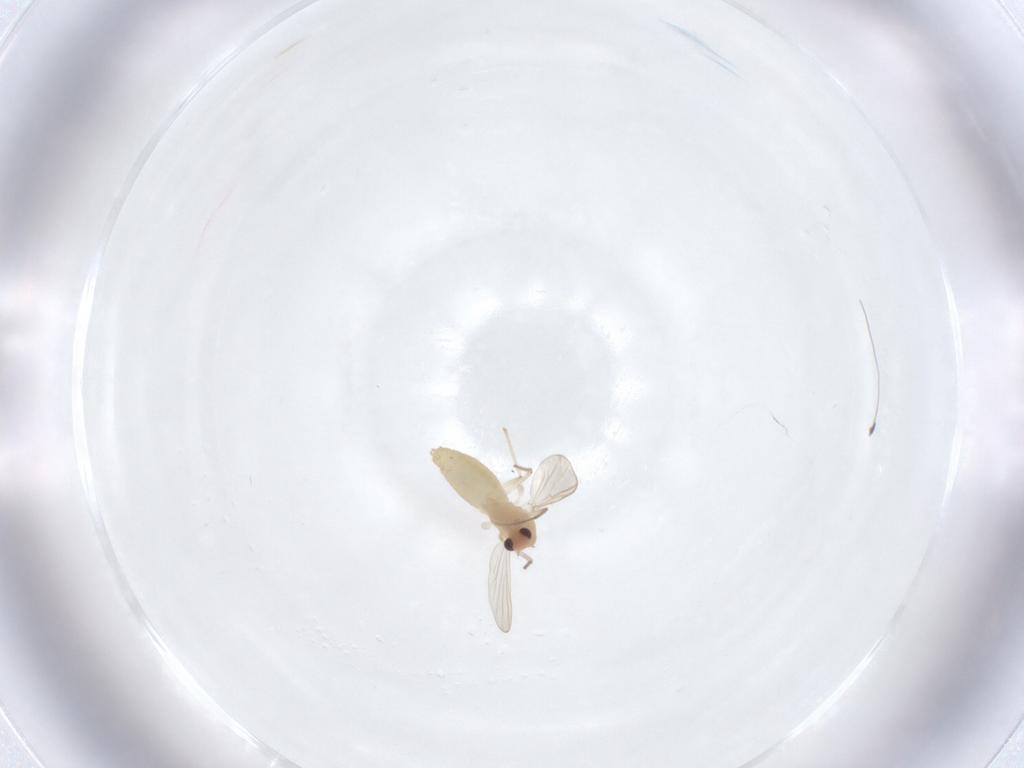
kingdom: Animalia
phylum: Arthropoda
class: Insecta
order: Diptera
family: Chironomidae
